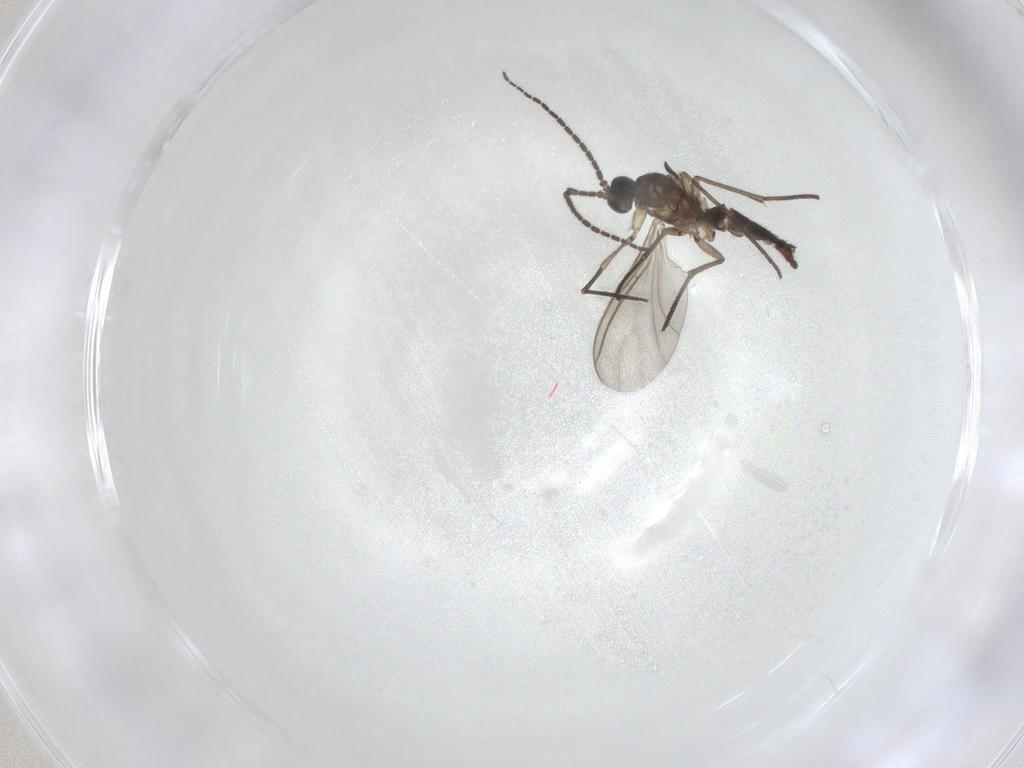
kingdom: Animalia
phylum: Arthropoda
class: Insecta
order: Diptera
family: Sciaridae
